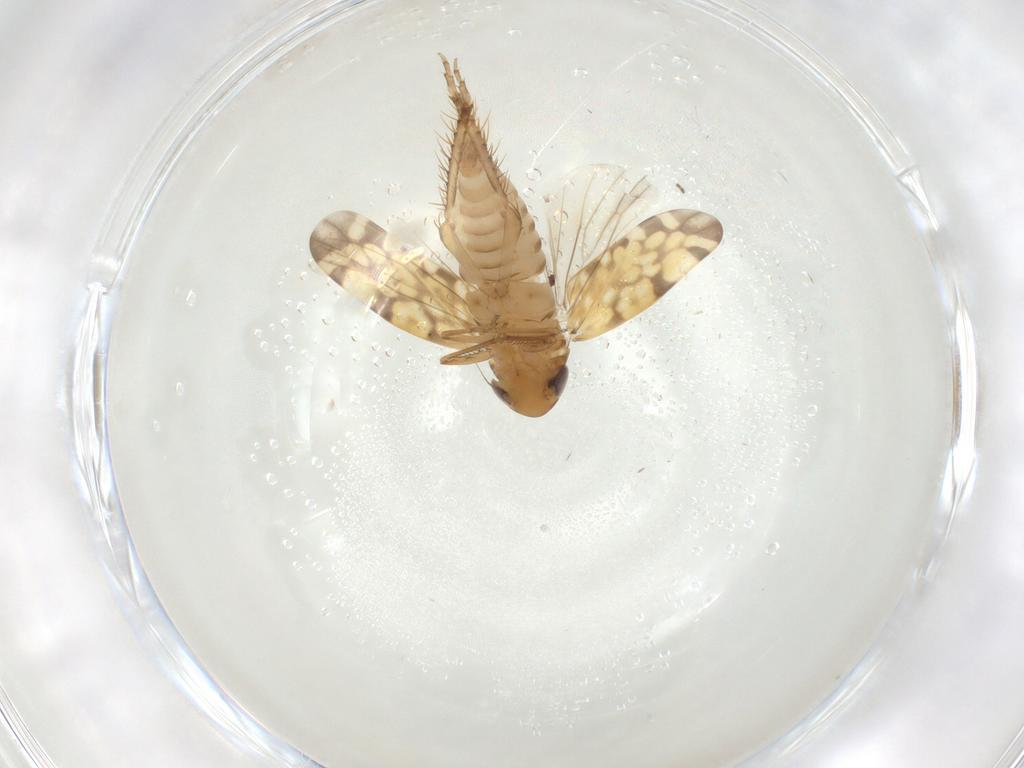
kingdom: Animalia
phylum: Arthropoda
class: Insecta
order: Hemiptera
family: Cicadellidae
